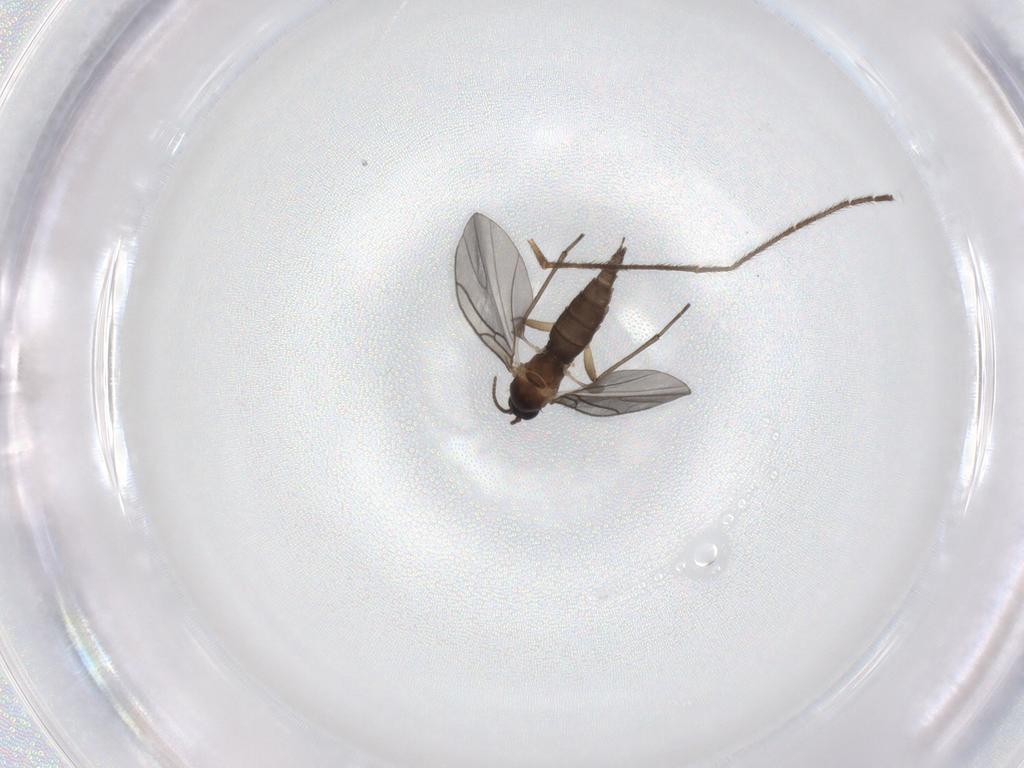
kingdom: Animalia
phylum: Arthropoda
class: Insecta
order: Diptera
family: Sciaridae
